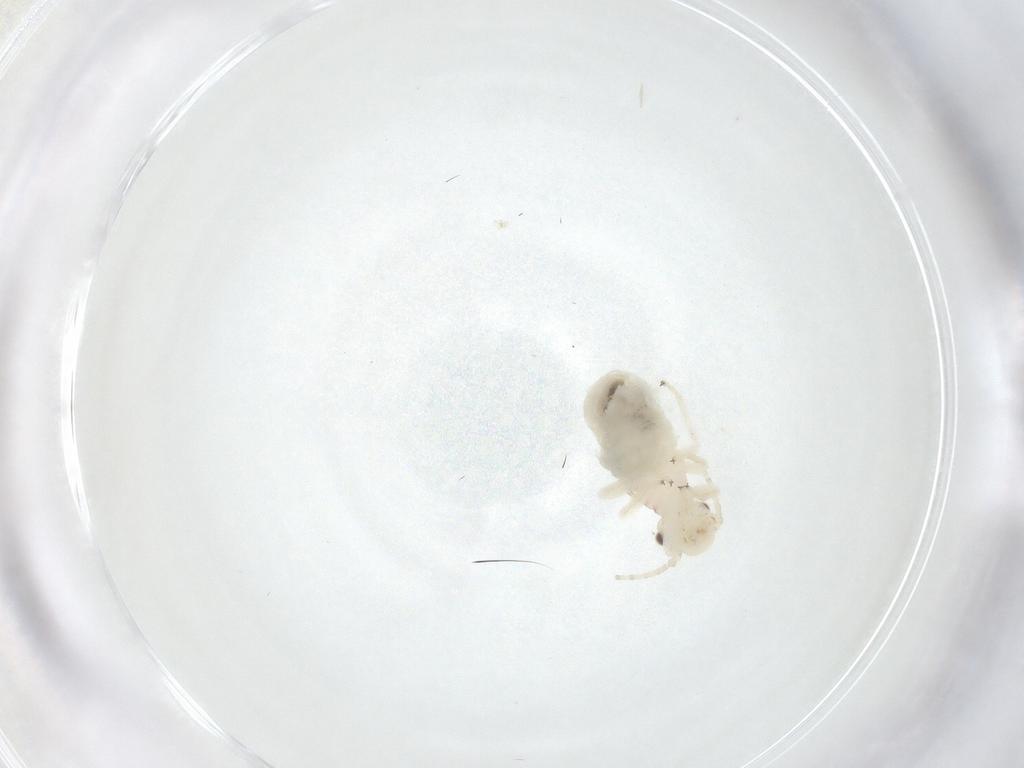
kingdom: Animalia
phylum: Arthropoda
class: Insecta
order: Psocodea
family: Amphipsocidae
